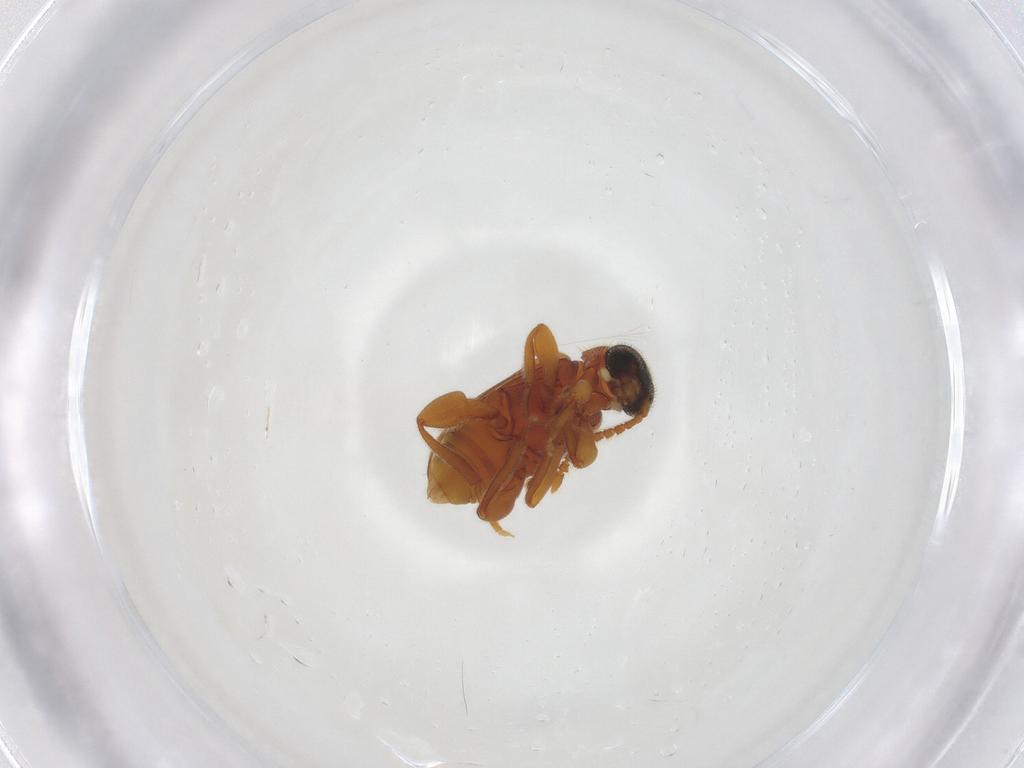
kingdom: Animalia
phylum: Arthropoda
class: Insecta
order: Coleoptera
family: Aderidae
